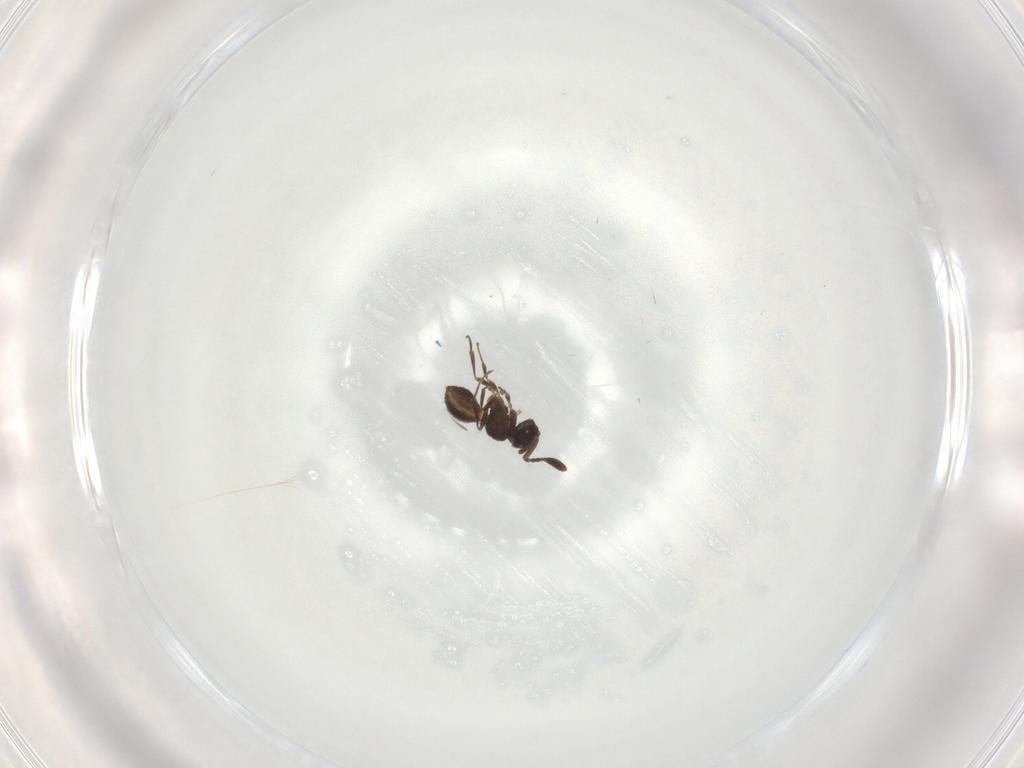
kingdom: Animalia
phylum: Arthropoda
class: Insecta
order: Hymenoptera
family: Scelionidae
